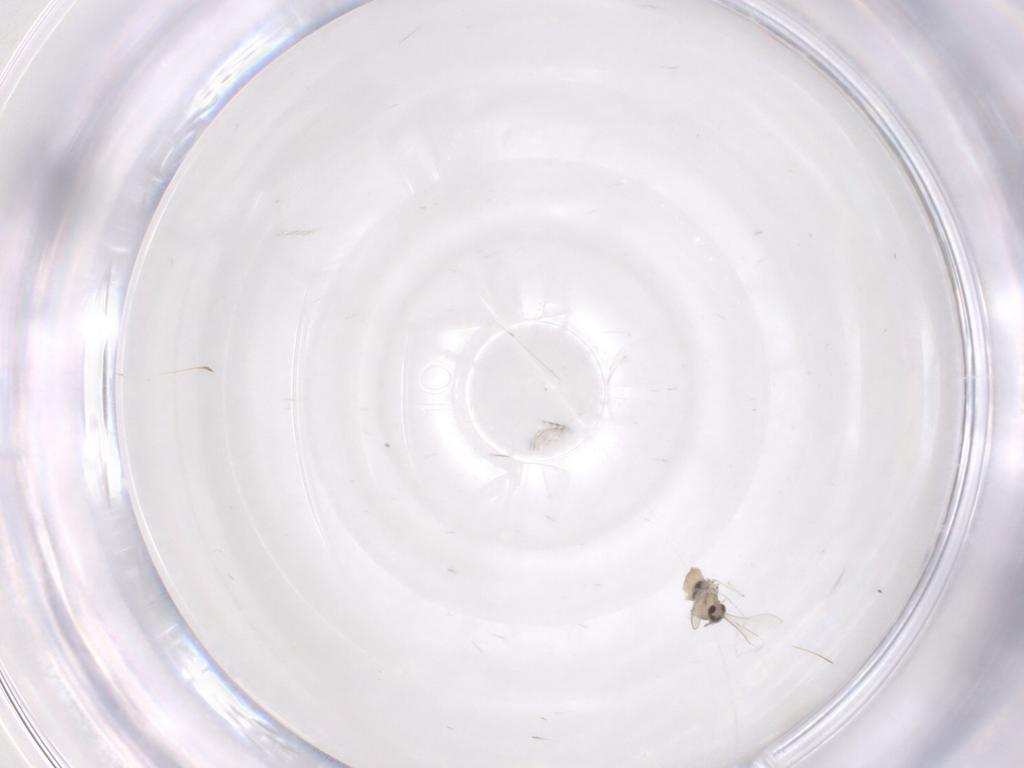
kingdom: Animalia
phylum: Arthropoda
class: Insecta
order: Diptera
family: Cecidomyiidae
